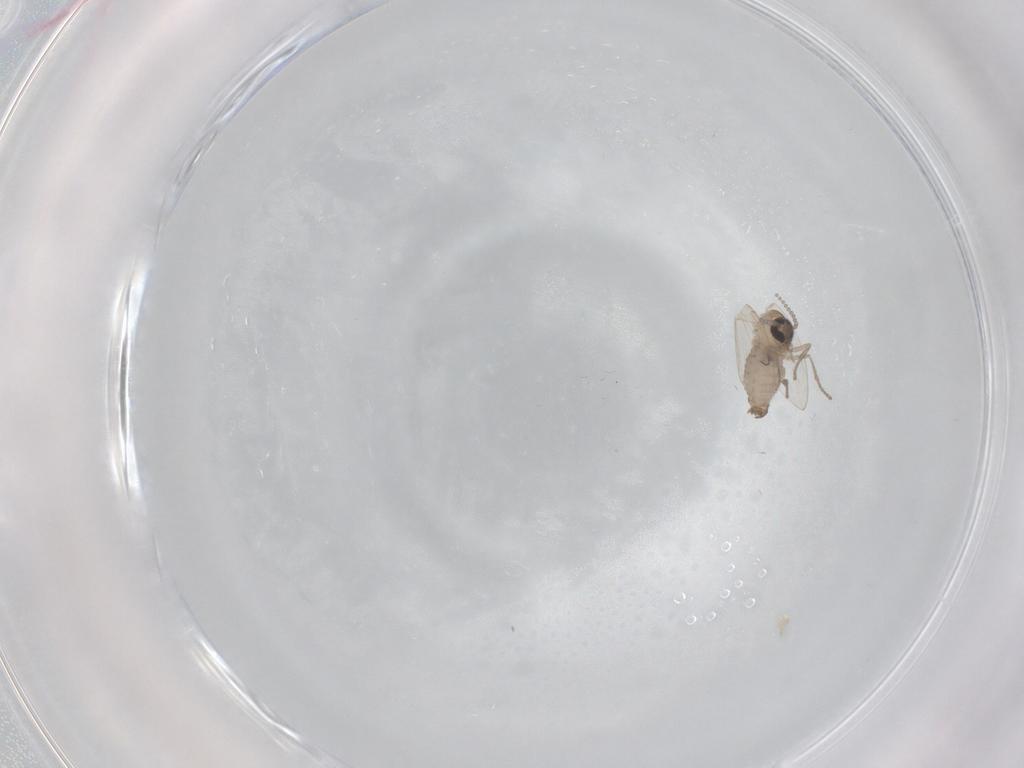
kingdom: Animalia
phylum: Arthropoda
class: Insecta
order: Diptera
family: Psychodidae
